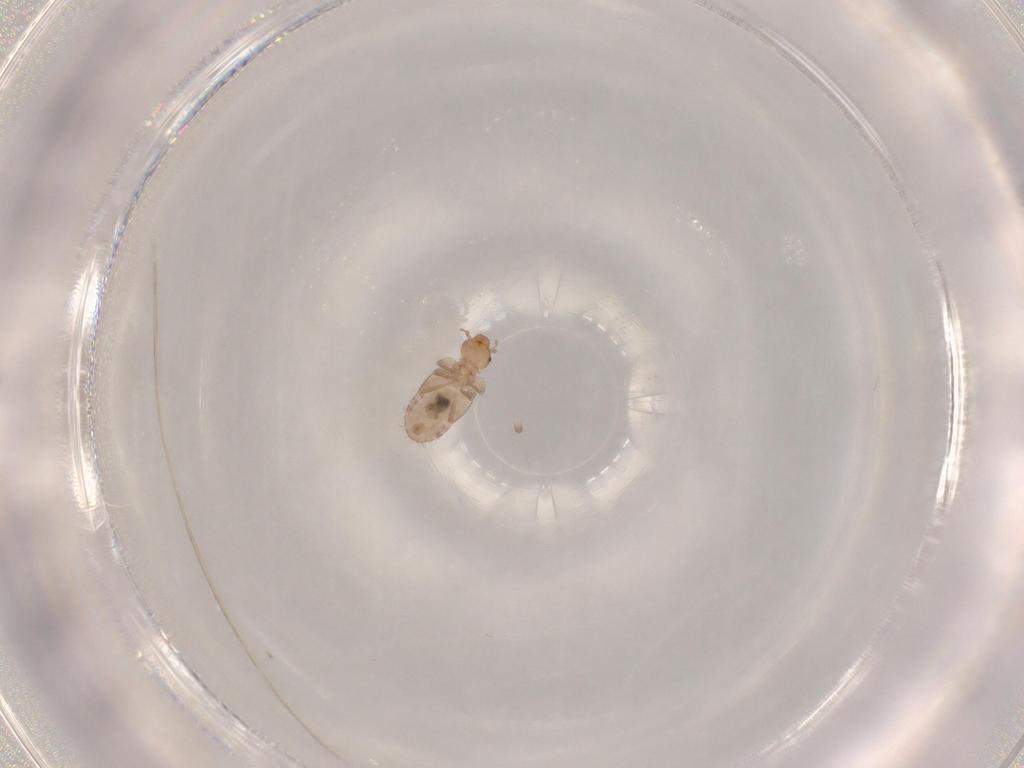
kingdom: Animalia
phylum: Arthropoda
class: Insecta
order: Psocodea
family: Liposcelididae
